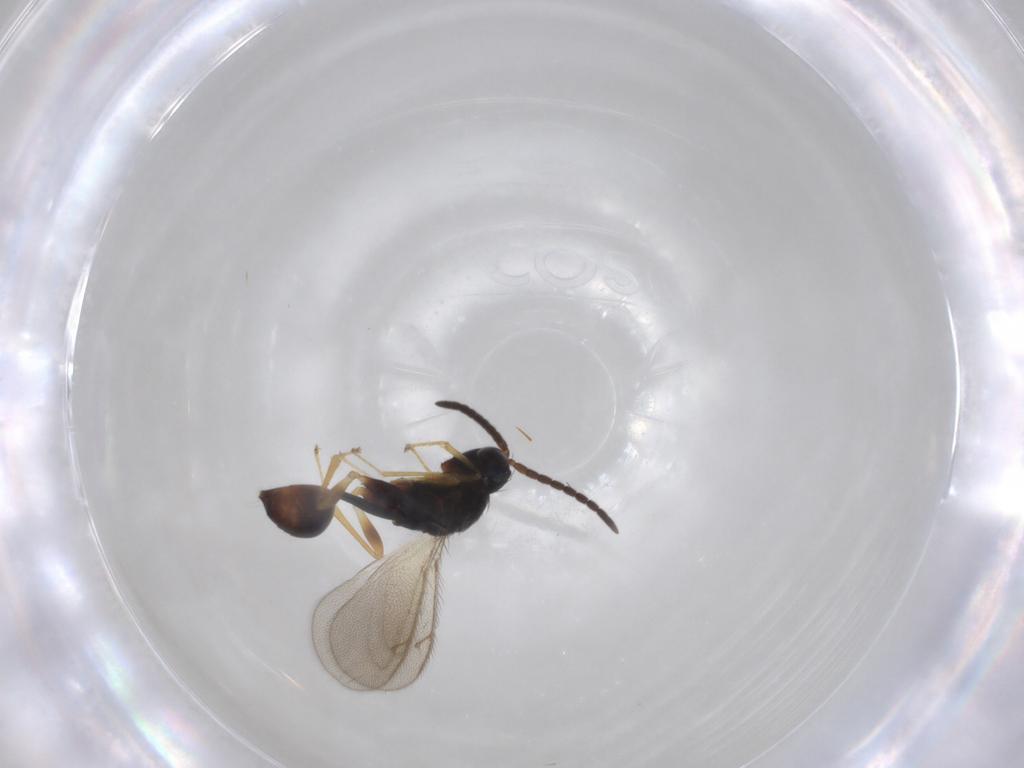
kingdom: Animalia
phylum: Arthropoda
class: Insecta
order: Hymenoptera
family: Pteromalidae
